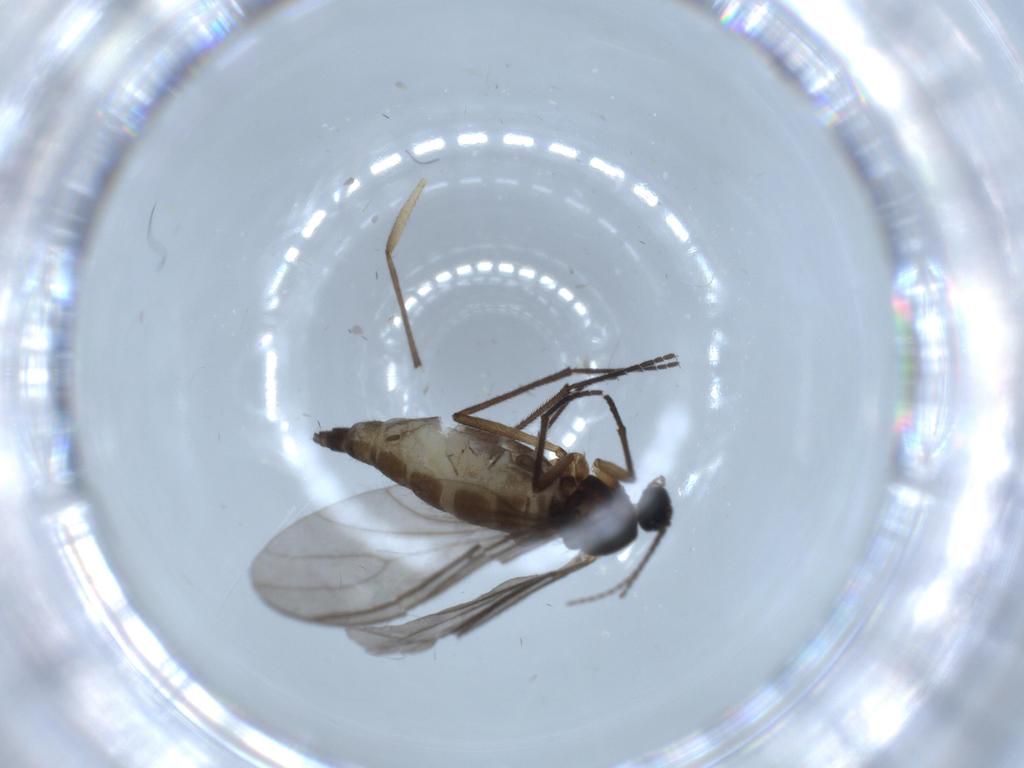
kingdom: Animalia
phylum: Arthropoda
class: Insecta
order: Diptera
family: Sciaridae
